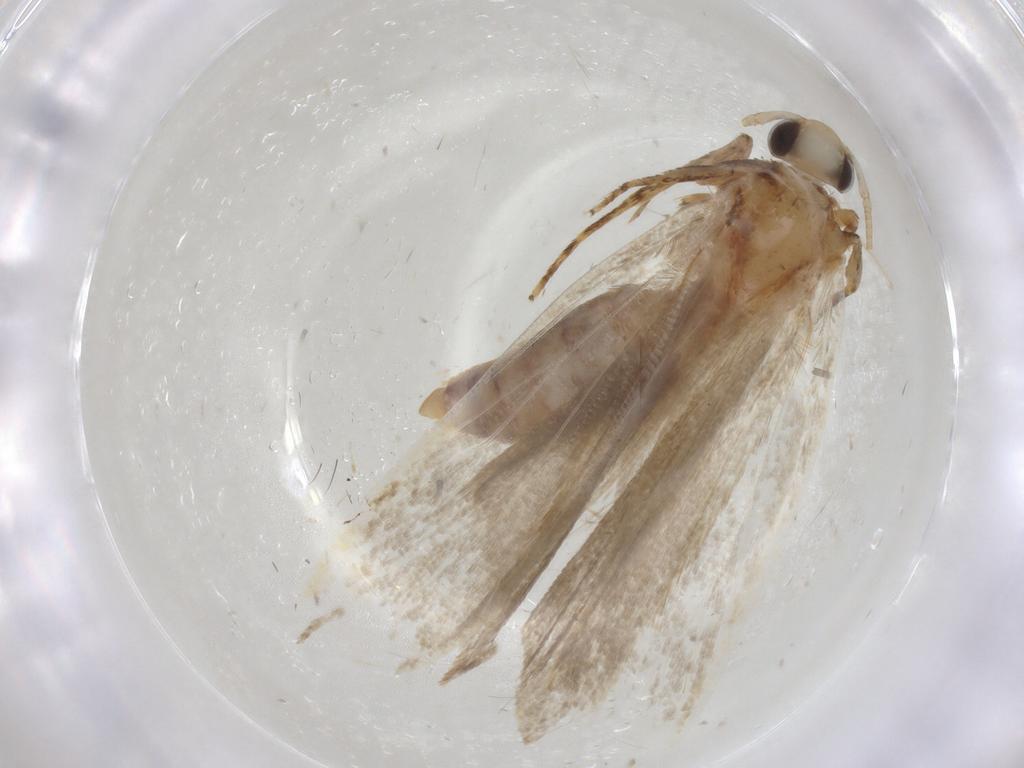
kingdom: Animalia
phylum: Arthropoda
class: Insecta
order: Lepidoptera
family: Autostichidae
